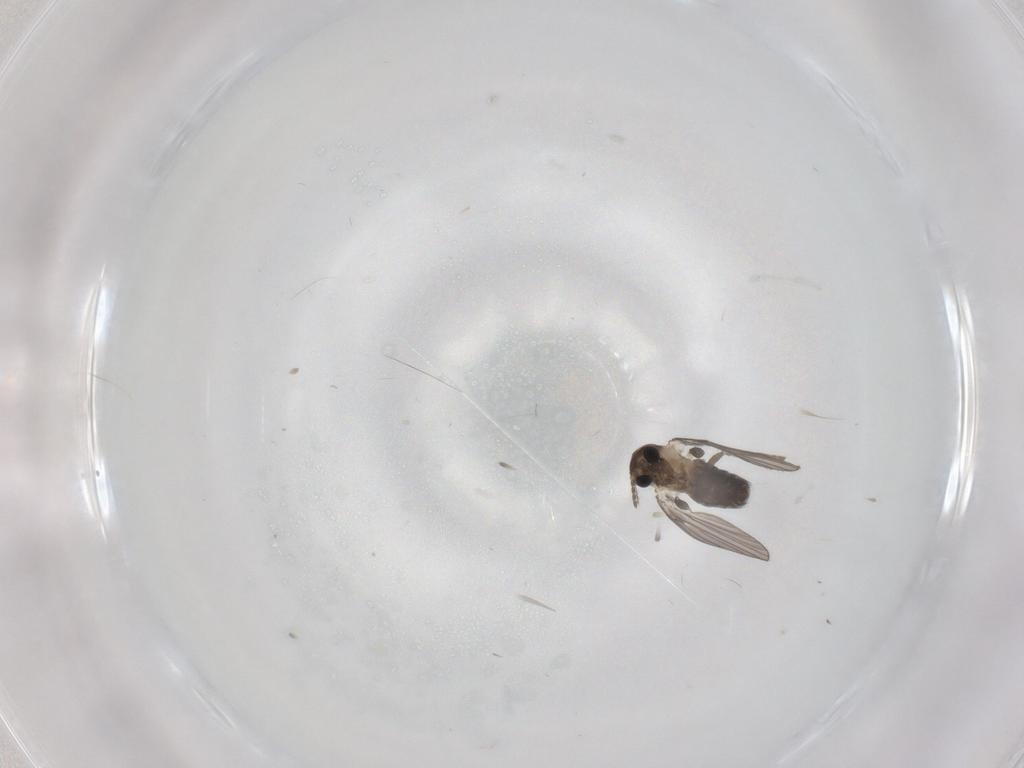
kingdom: Animalia
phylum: Arthropoda
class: Insecta
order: Diptera
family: Psychodidae
